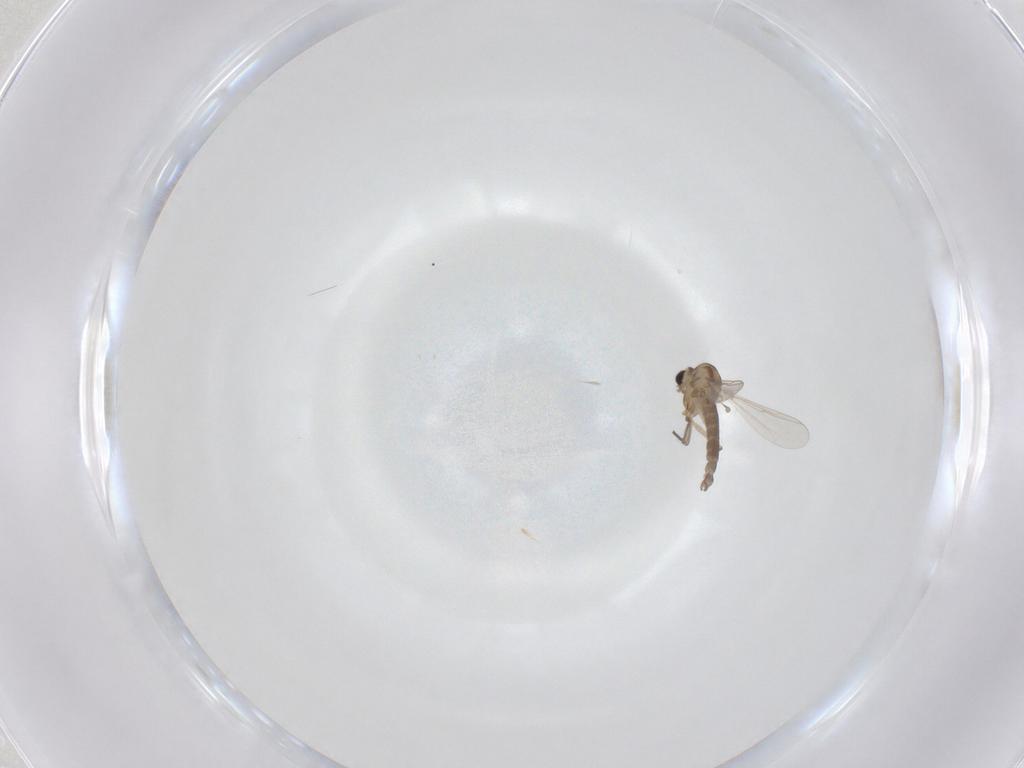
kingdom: Animalia
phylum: Arthropoda
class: Insecta
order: Diptera
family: Chironomidae
